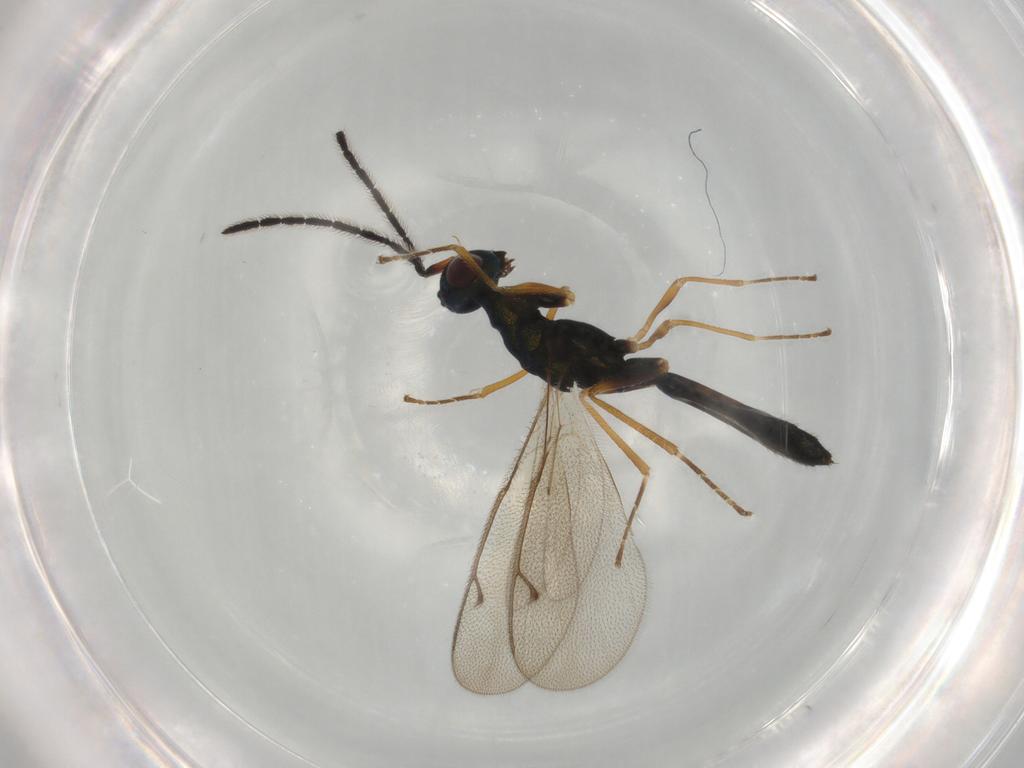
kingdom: Animalia
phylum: Arthropoda
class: Insecta
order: Hymenoptera
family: Pteromalidae
